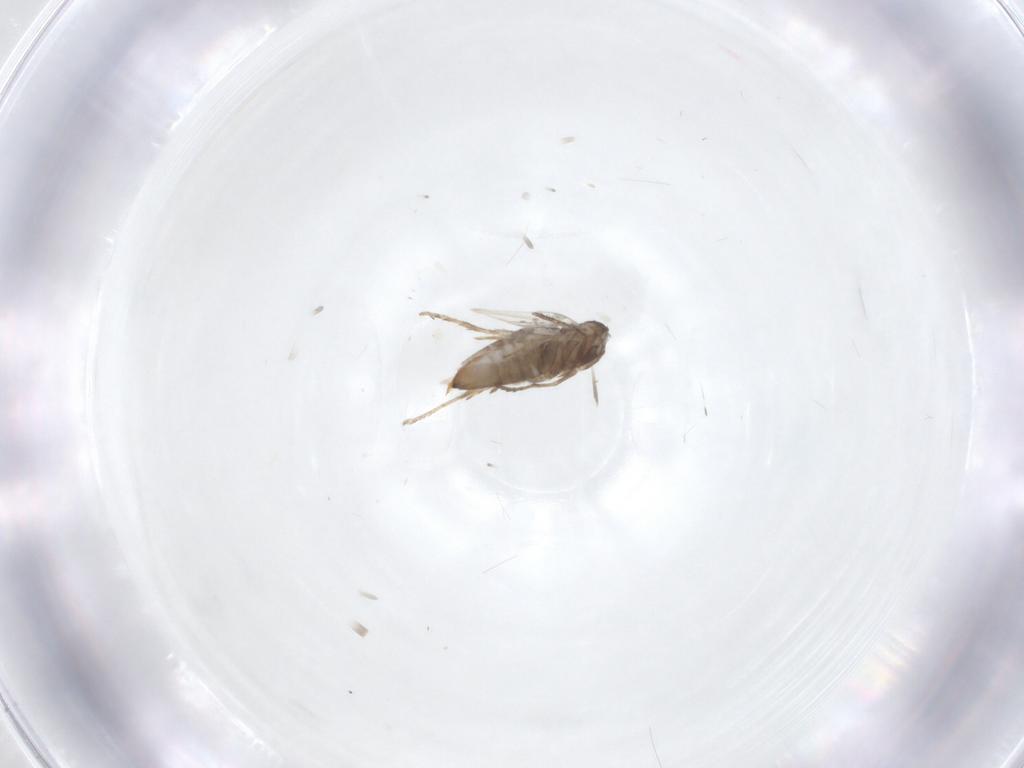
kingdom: Animalia
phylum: Arthropoda
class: Insecta
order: Lepidoptera
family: Heliozelidae
